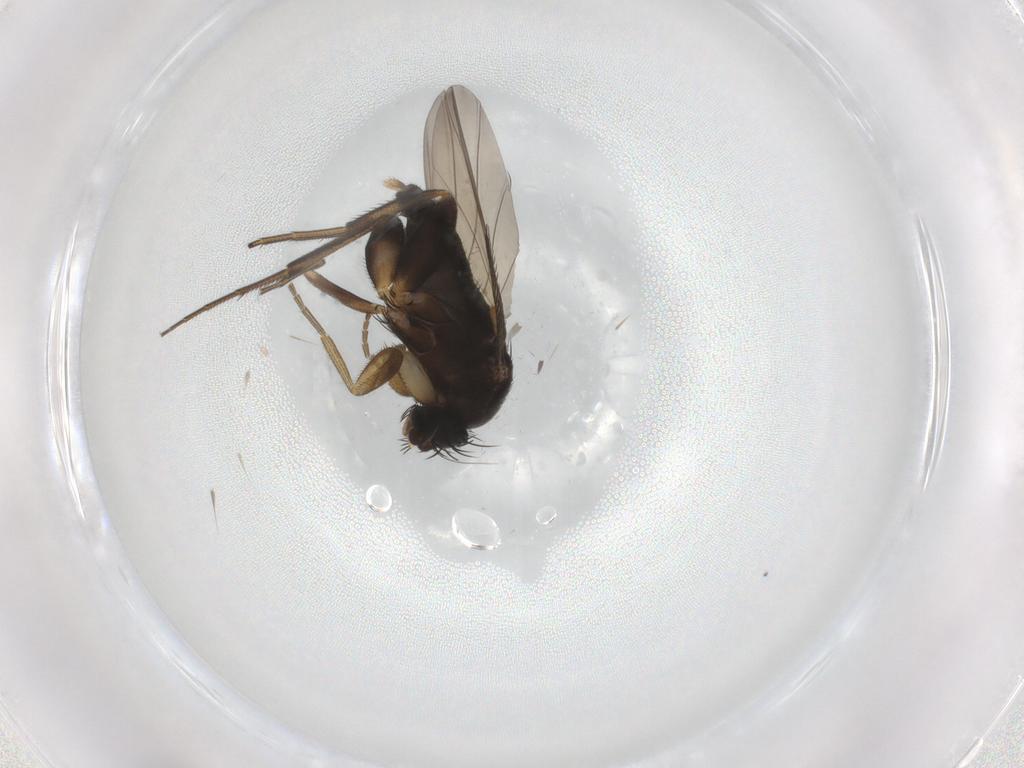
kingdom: Animalia
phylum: Arthropoda
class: Insecta
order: Diptera
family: Phoridae
